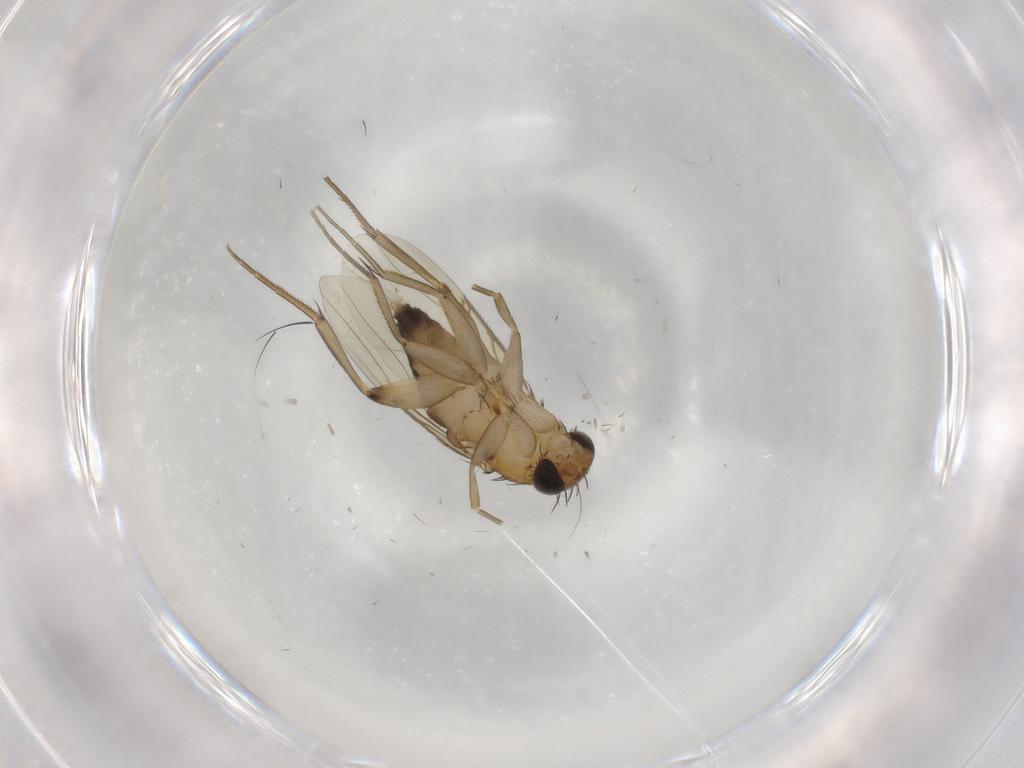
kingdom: Animalia
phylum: Arthropoda
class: Insecta
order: Diptera
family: Phoridae
